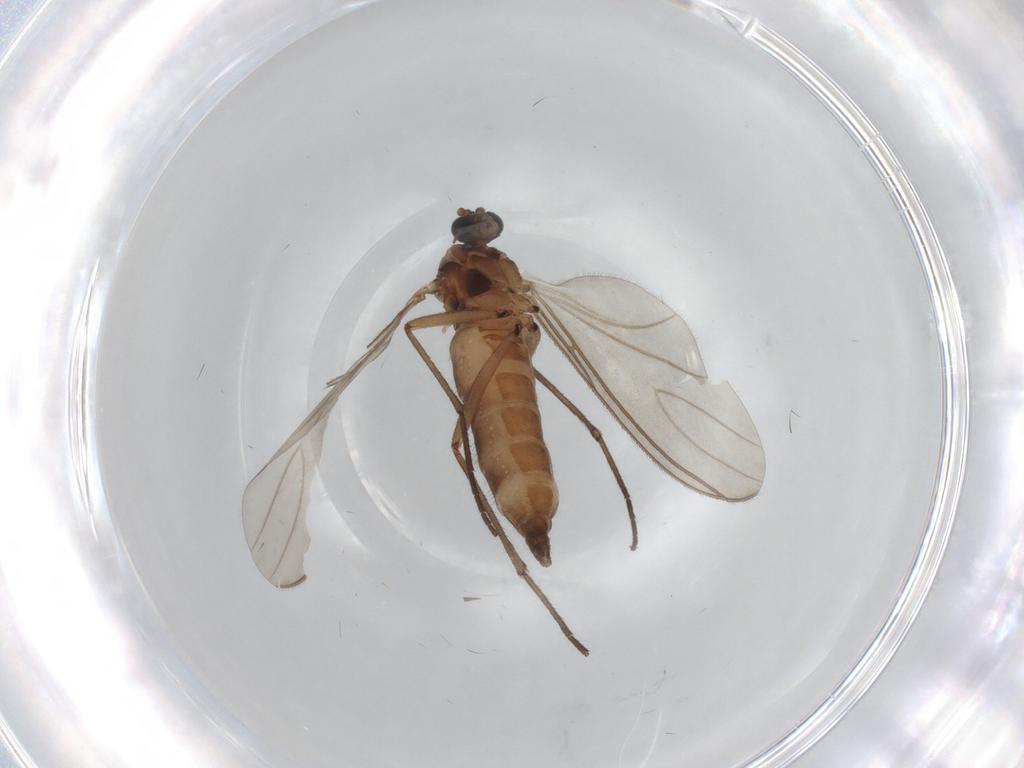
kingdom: Animalia
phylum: Arthropoda
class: Insecta
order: Diptera
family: Sciaridae
